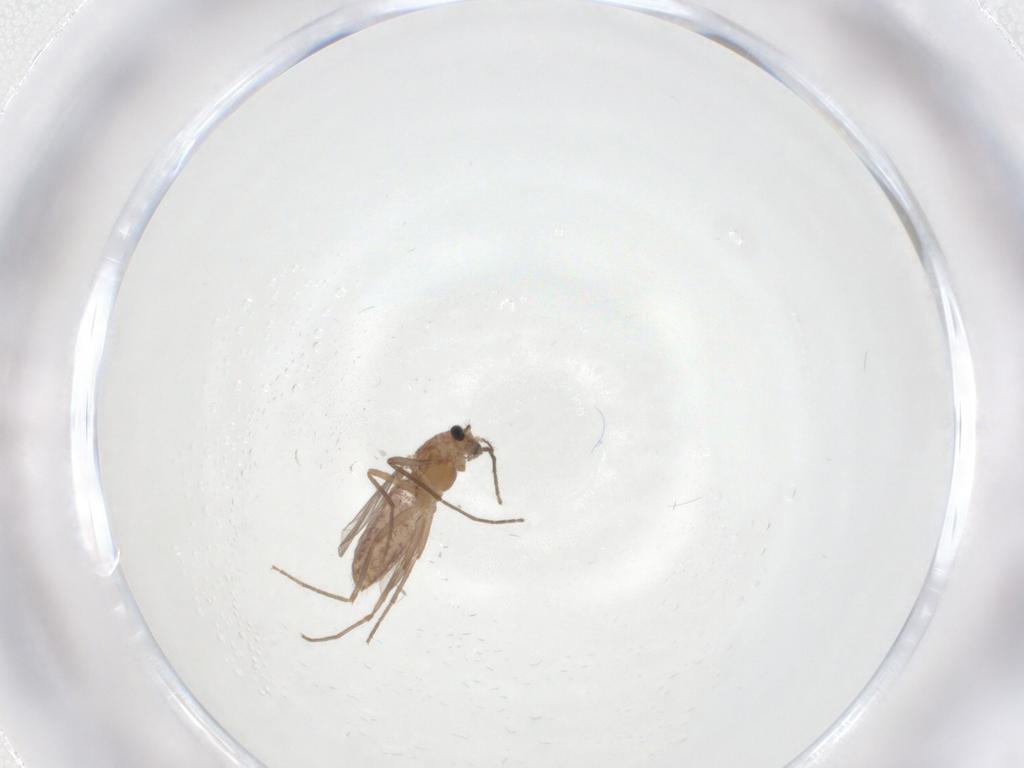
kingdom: Animalia
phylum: Arthropoda
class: Insecta
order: Diptera
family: Chironomidae
